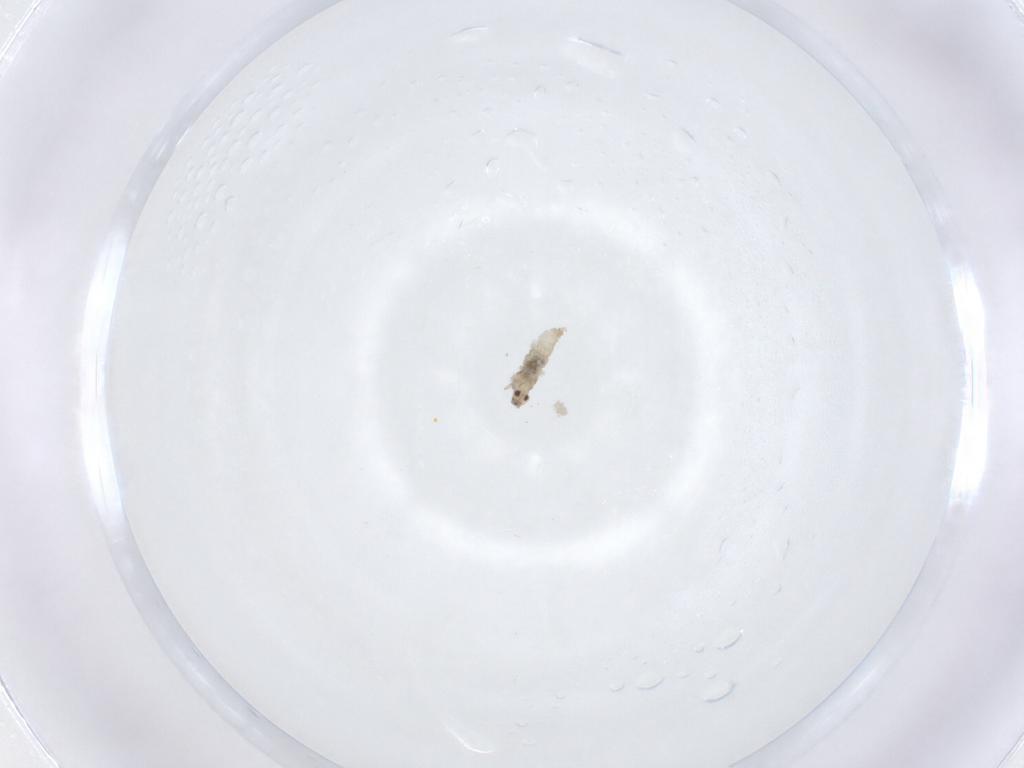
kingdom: Animalia
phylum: Arthropoda
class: Insecta
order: Diptera
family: Cecidomyiidae
